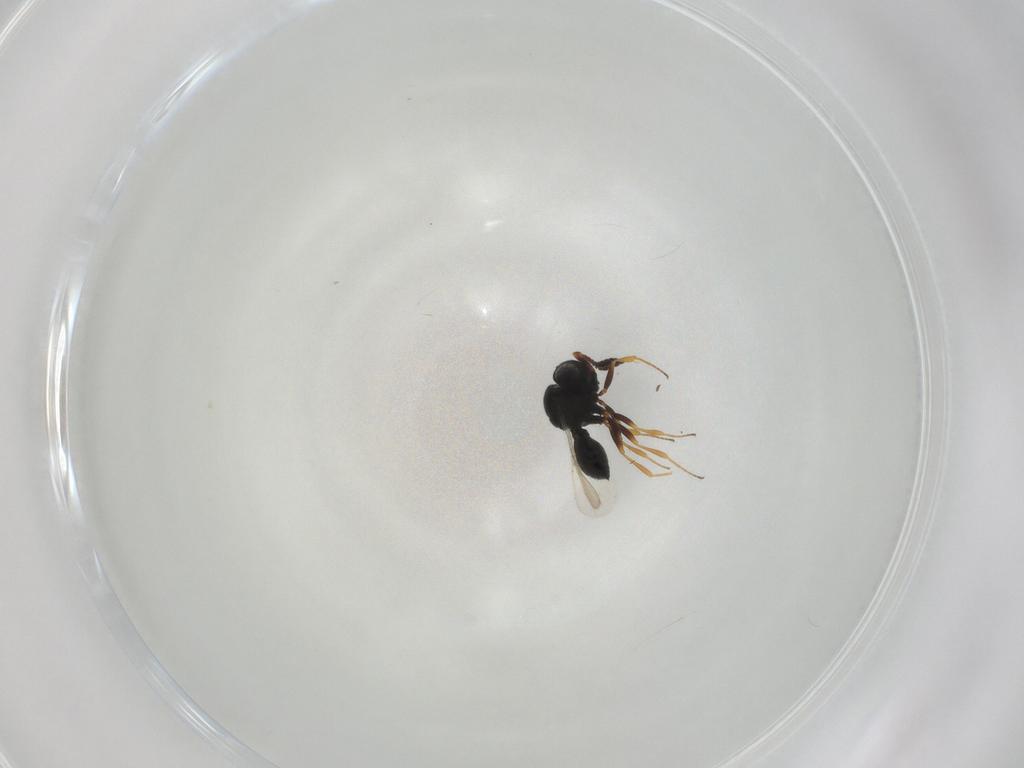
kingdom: Animalia
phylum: Arthropoda
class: Insecta
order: Hymenoptera
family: Scelionidae
